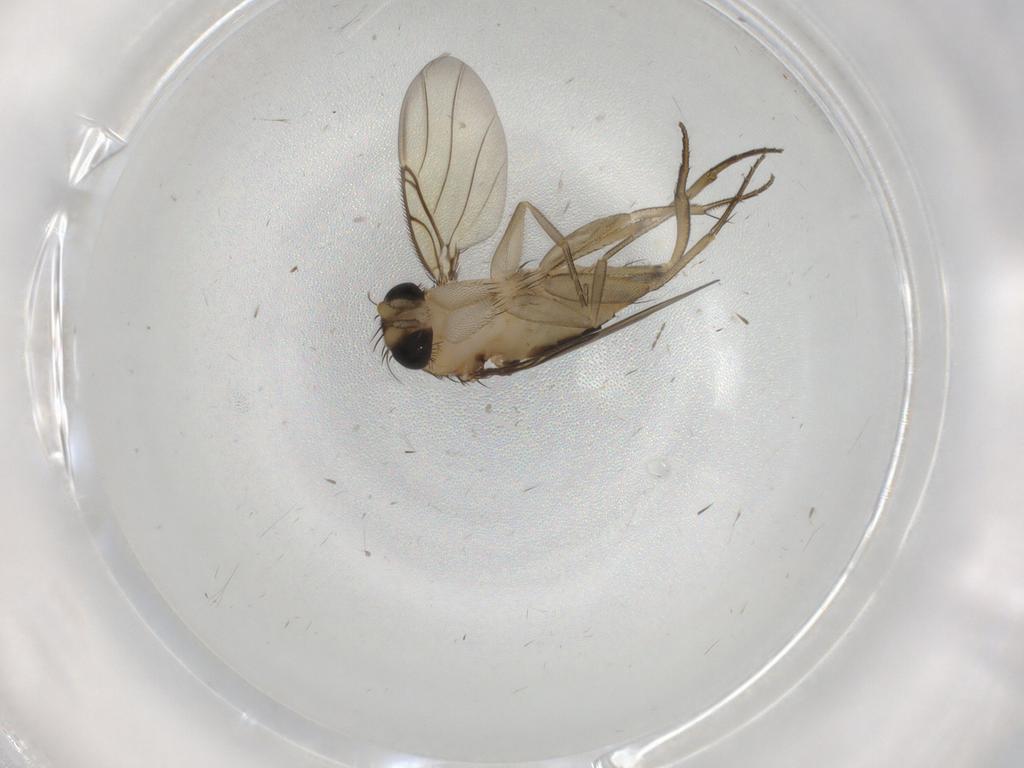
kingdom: Animalia
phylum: Arthropoda
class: Insecta
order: Diptera
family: Phoridae
